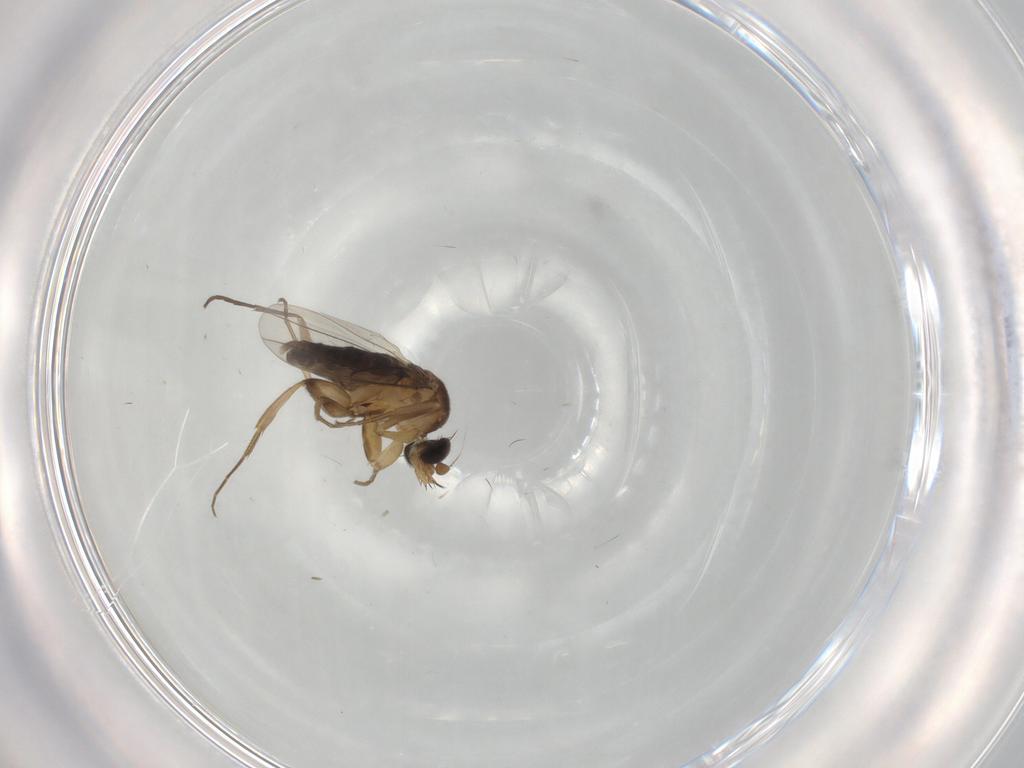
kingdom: Animalia
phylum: Arthropoda
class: Insecta
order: Diptera
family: Phoridae
